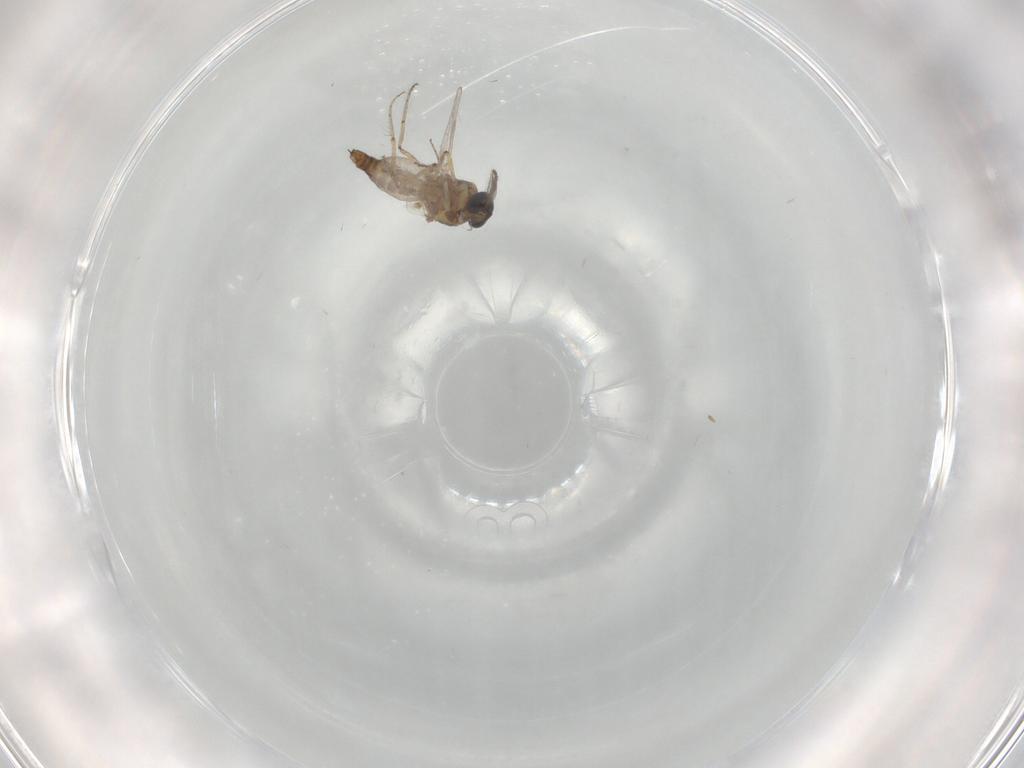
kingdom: Animalia
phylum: Arthropoda
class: Insecta
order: Diptera
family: Ceratopogonidae
